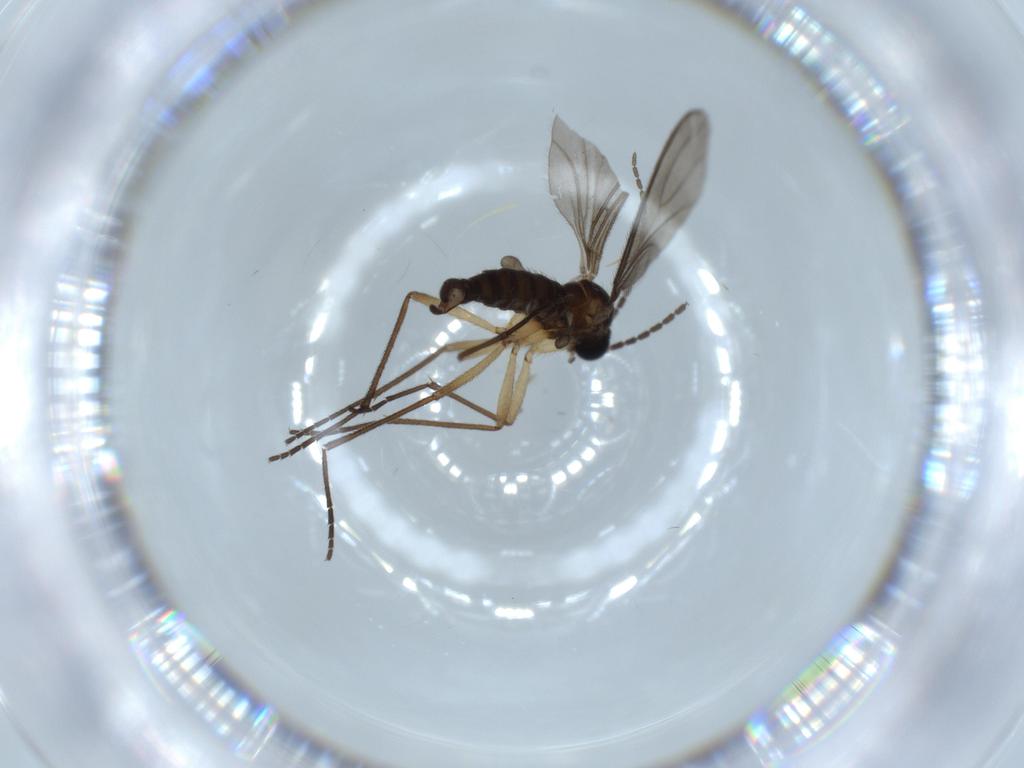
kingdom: Animalia
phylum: Arthropoda
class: Insecta
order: Diptera
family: Sciaridae
